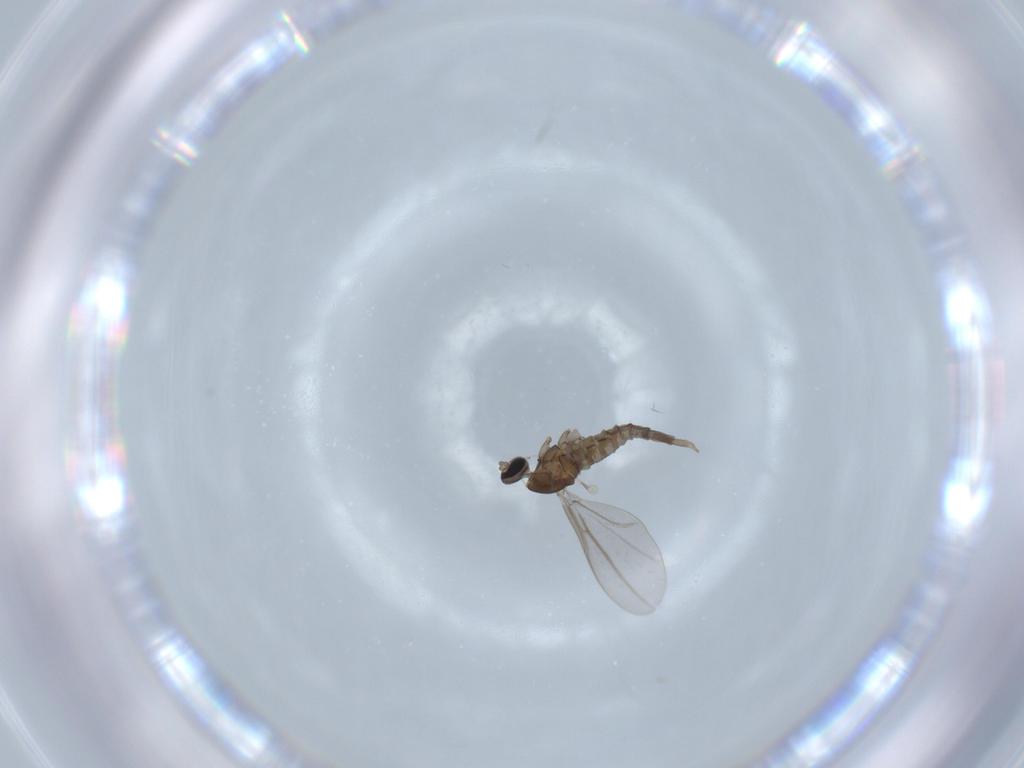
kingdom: Animalia
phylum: Arthropoda
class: Insecta
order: Diptera
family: Cecidomyiidae
